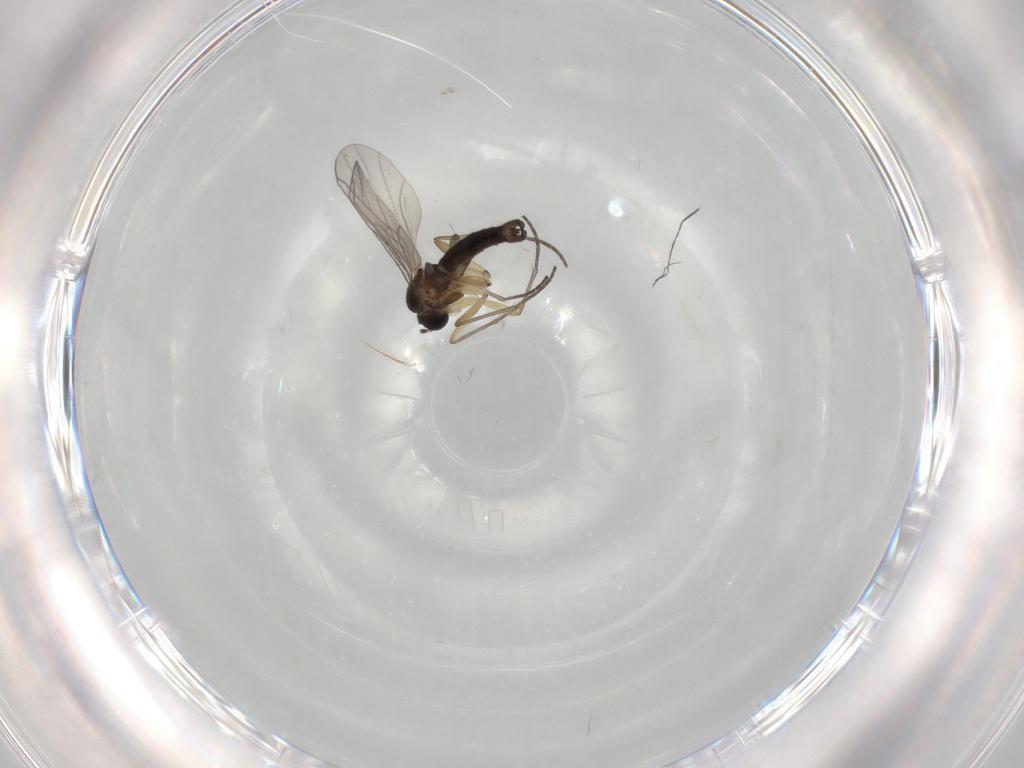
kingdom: Animalia
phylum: Arthropoda
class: Insecta
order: Diptera
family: Sciaridae
